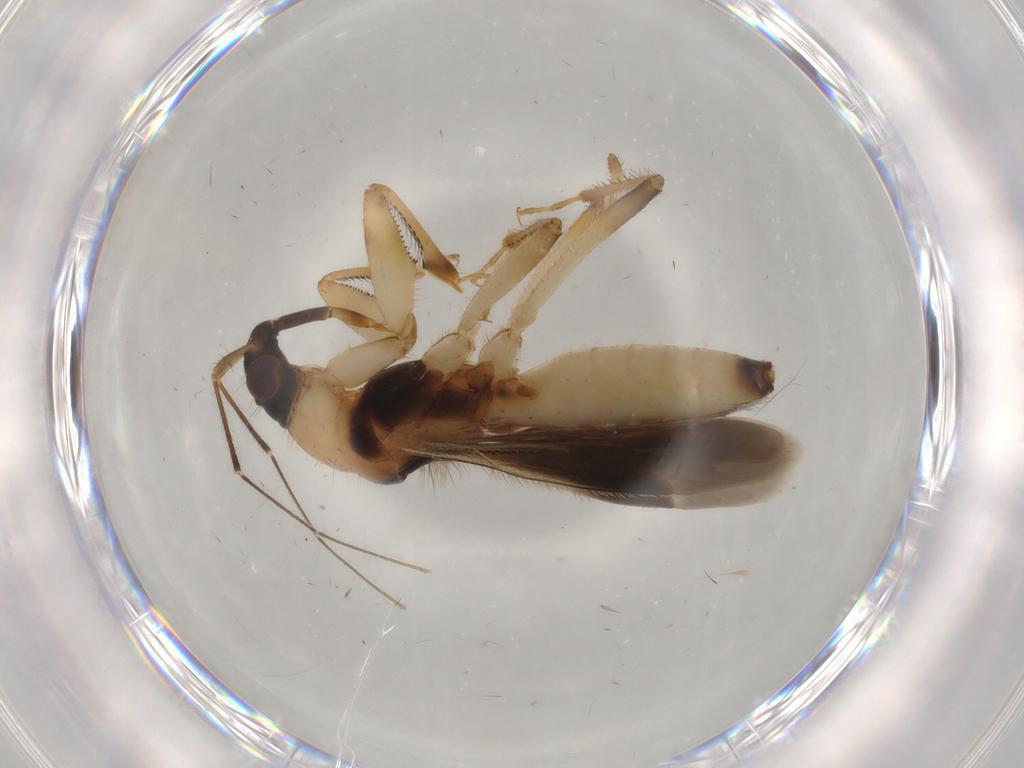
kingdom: Animalia
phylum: Arthropoda
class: Insecta
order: Hemiptera
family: Nabidae
